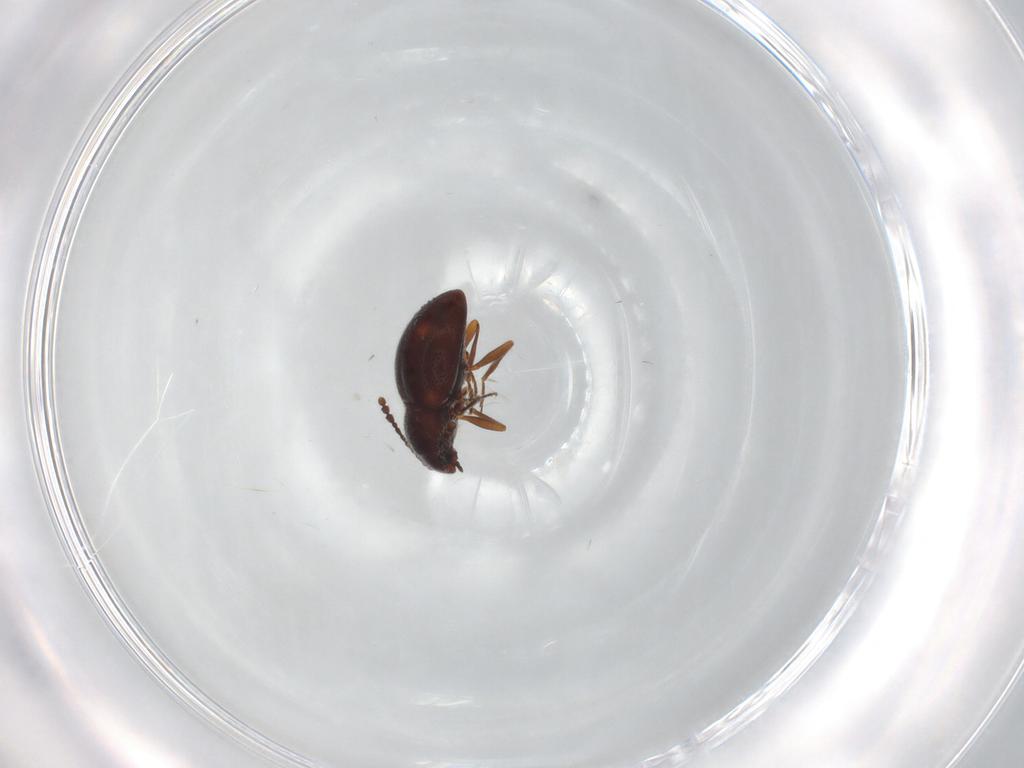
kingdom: Animalia
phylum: Arthropoda
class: Insecta
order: Coleoptera
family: Erotylidae
